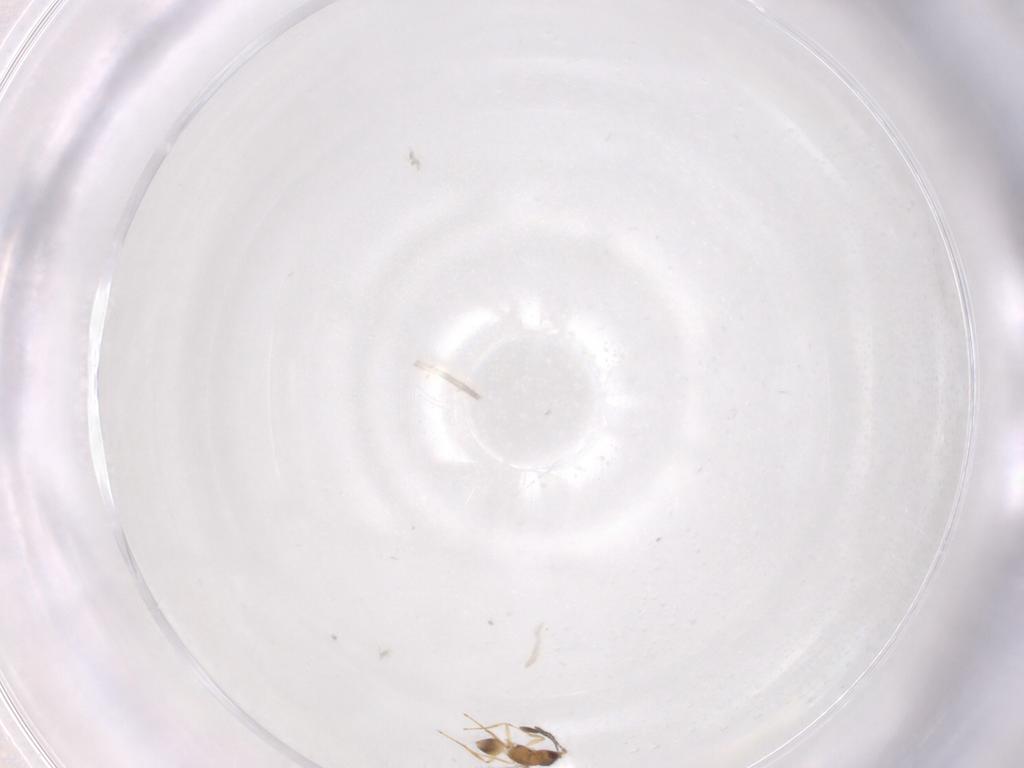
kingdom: Animalia
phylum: Arthropoda
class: Insecta
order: Hymenoptera
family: Mymaridae
